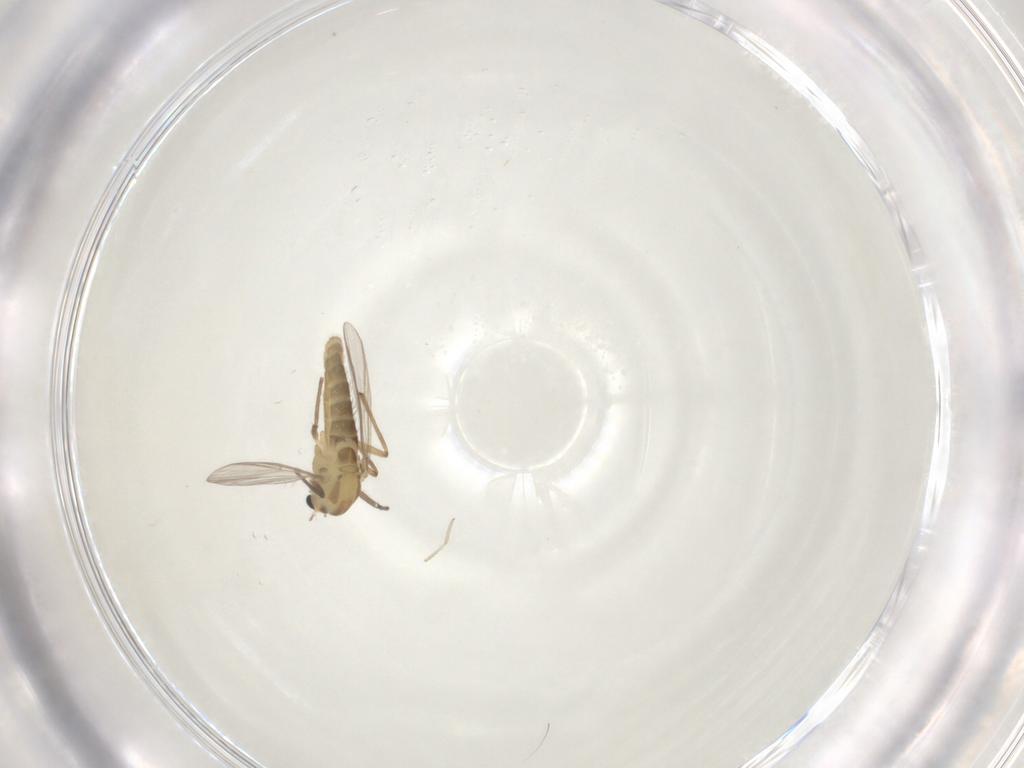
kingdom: Animalia
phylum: Arthropoda
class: Insecta
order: Diptera
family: Chironomidae
